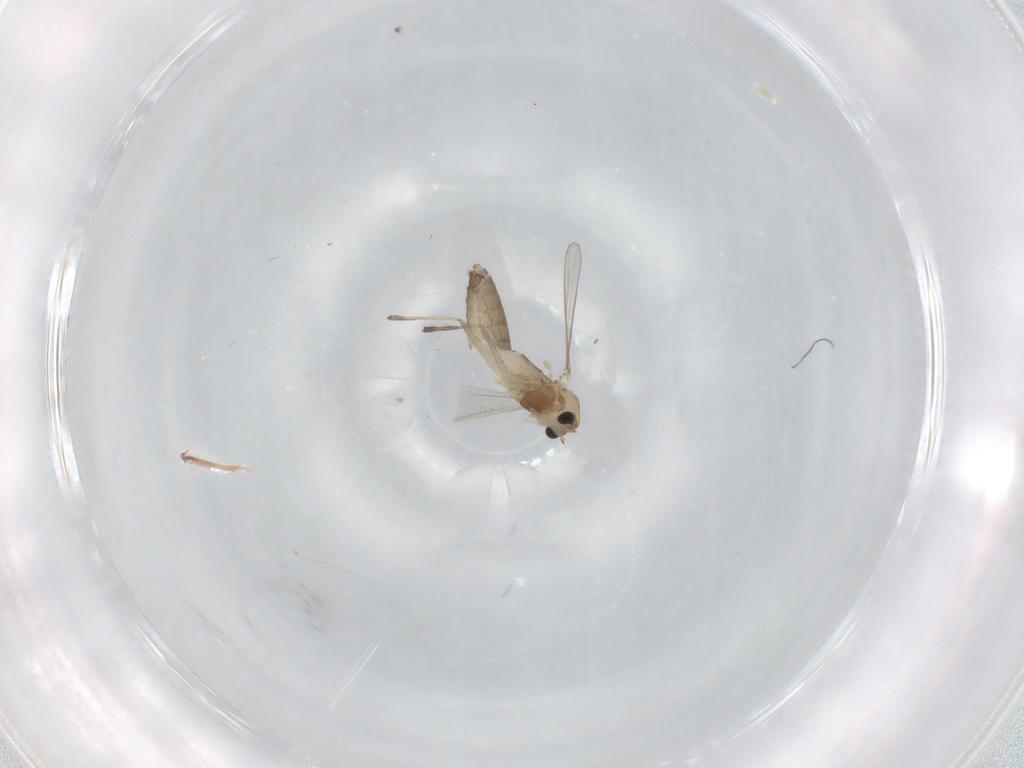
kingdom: Animalia
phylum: Arthropoda
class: Insecta
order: Diptera
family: Chironomidae
